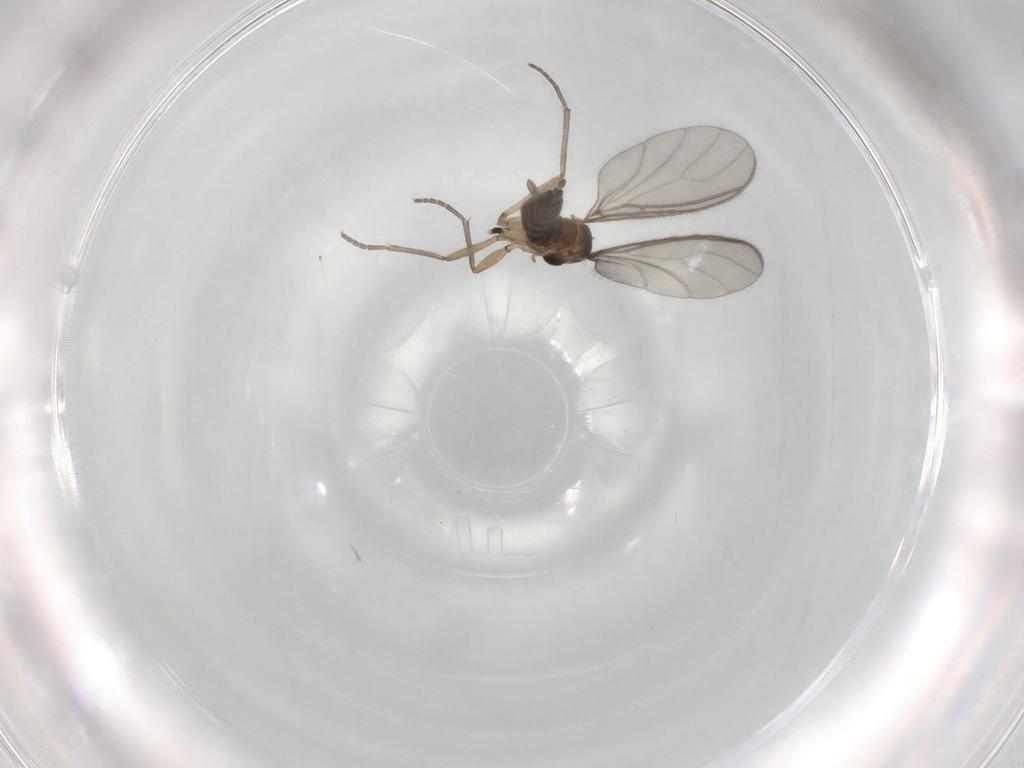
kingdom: Animalia
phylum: Arthropoda
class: Insecta
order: Diptera
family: Sciaridae
